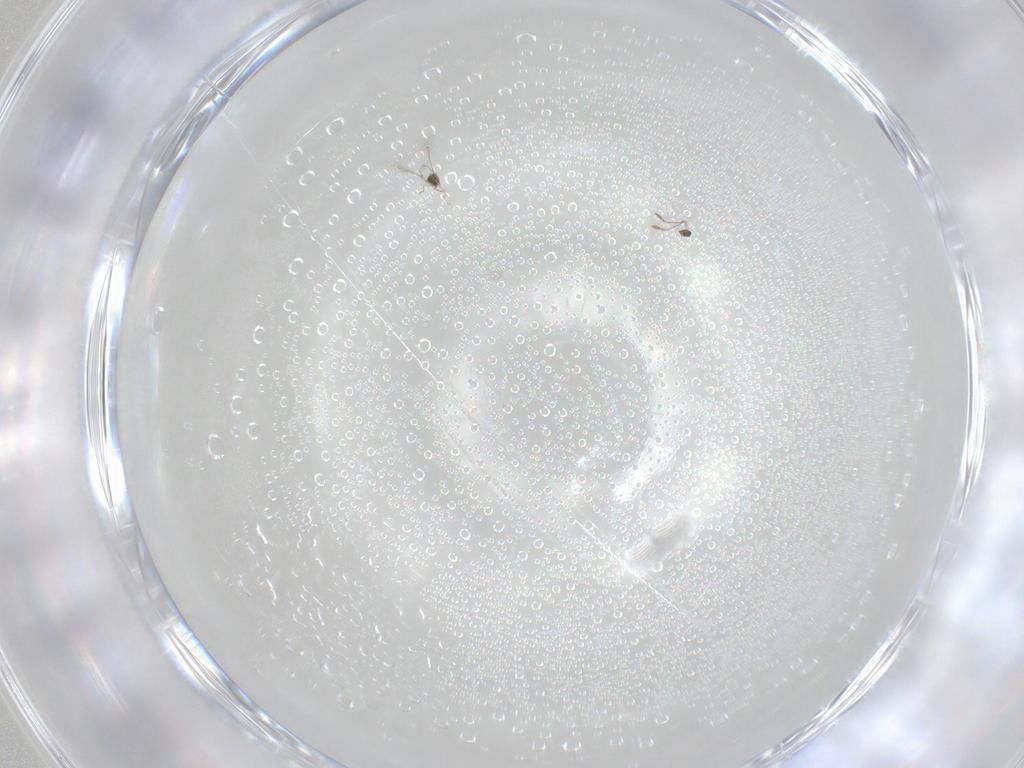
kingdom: Animalia
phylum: Arthropoda
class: Insecta
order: Hymenoptera
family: Mymaridae
